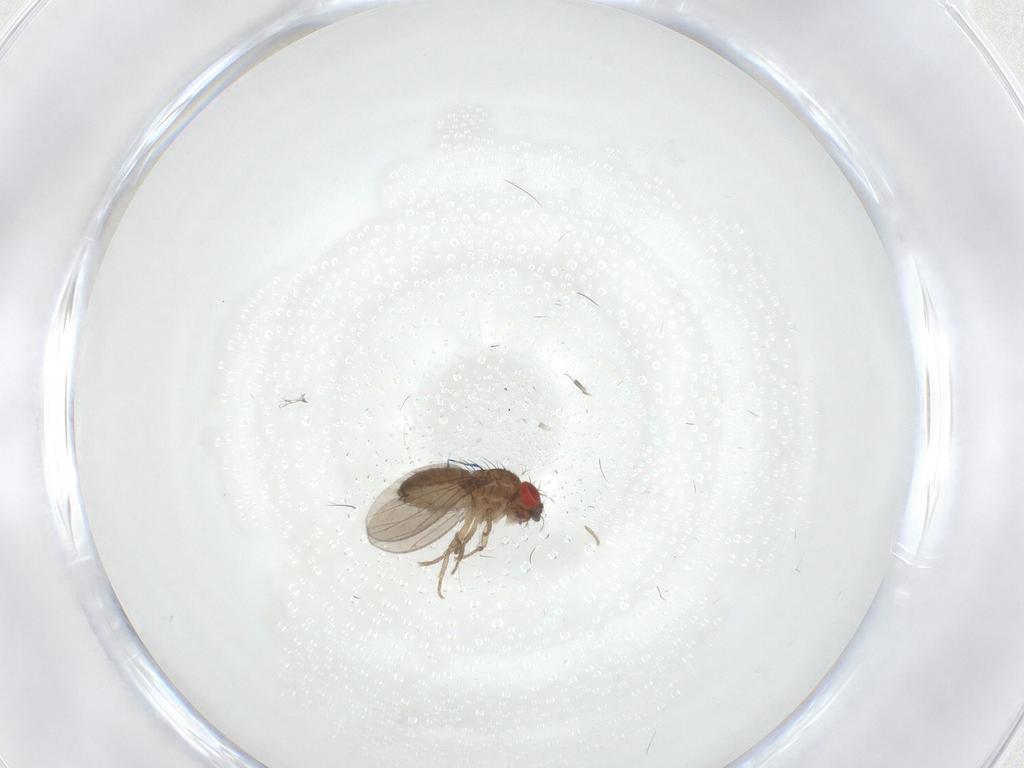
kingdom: Animalia
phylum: Arthropoda
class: Insecta
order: Diptera
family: Drosophilidae
